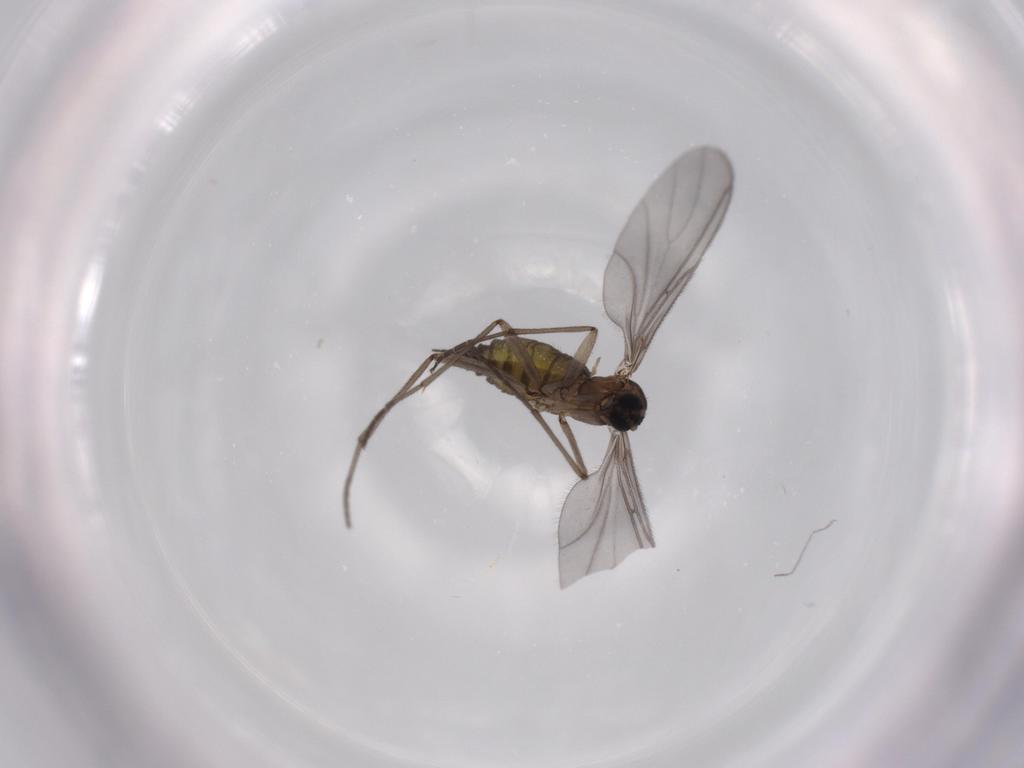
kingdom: Animalia
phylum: Arthropoda
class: Insecta
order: Diptera
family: Sciaridae
